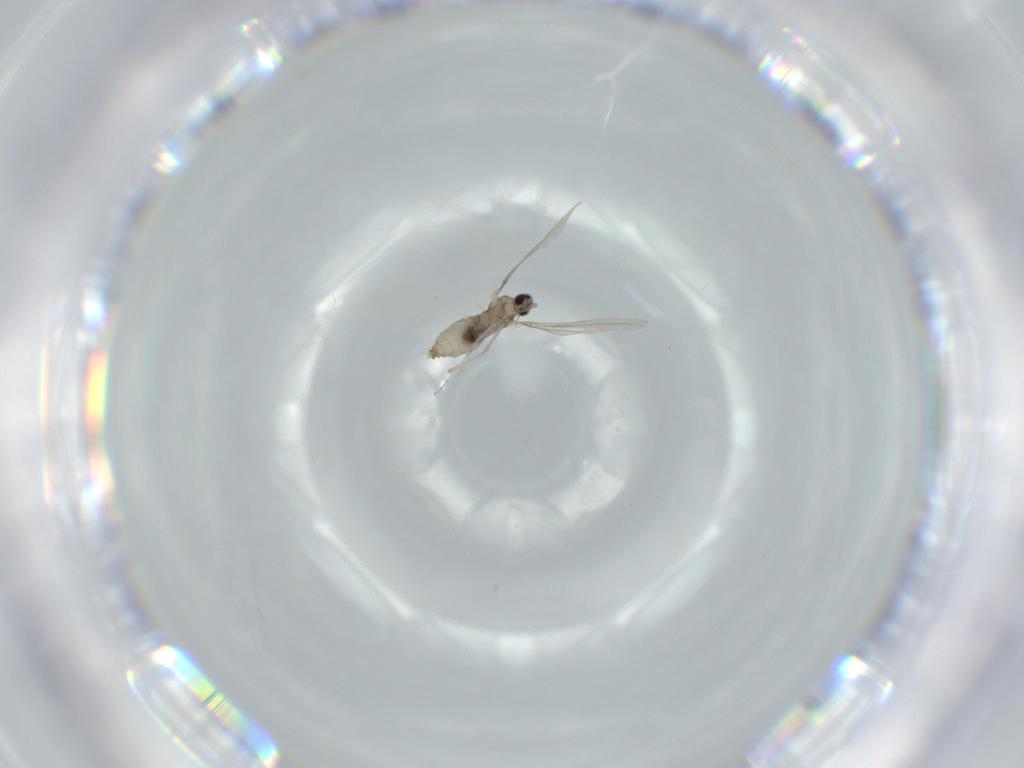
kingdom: Animalia
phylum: Arthropoda
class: Insecta
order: Diptera
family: Cecidomyiidae
